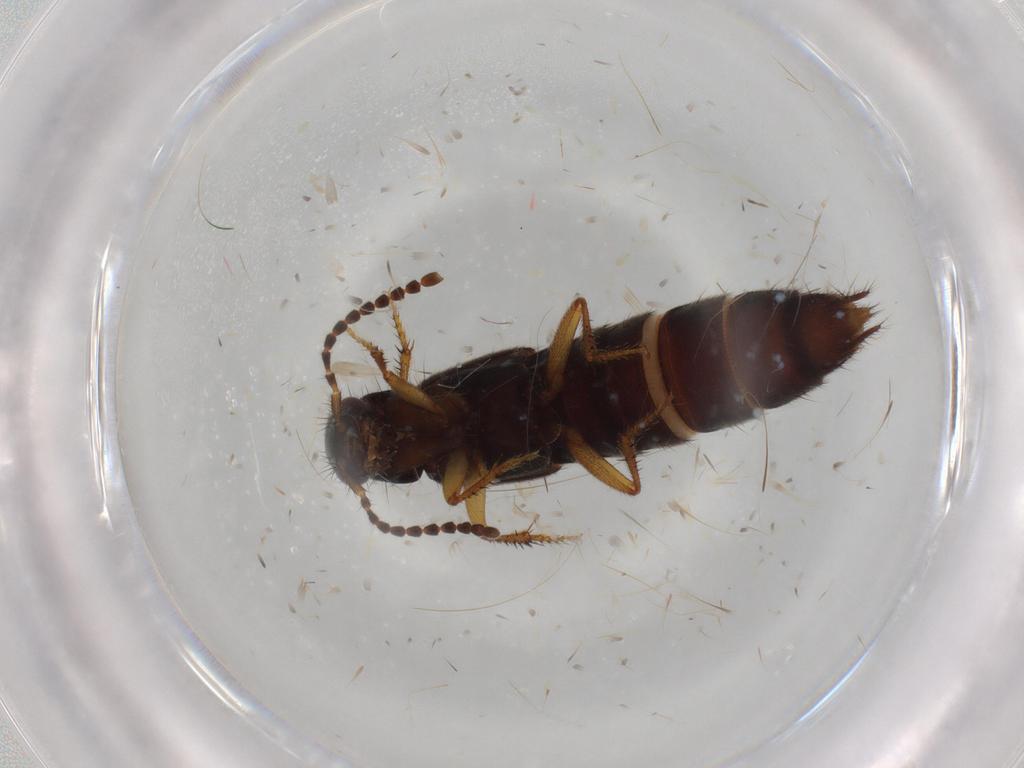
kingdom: Animalia
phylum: Arthropoda
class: Insecta
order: Coleoptera
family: Staphylinidae
